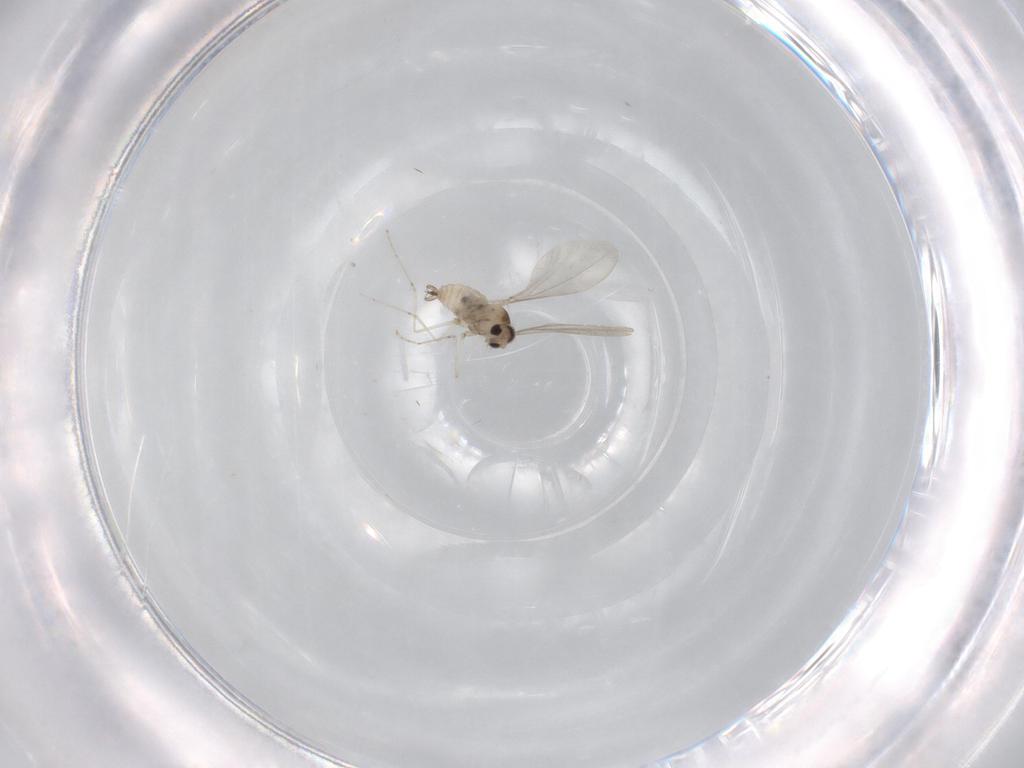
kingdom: Animalia
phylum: Arthropoda
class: Insecta
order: Diptera
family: Cecidomyiidae
